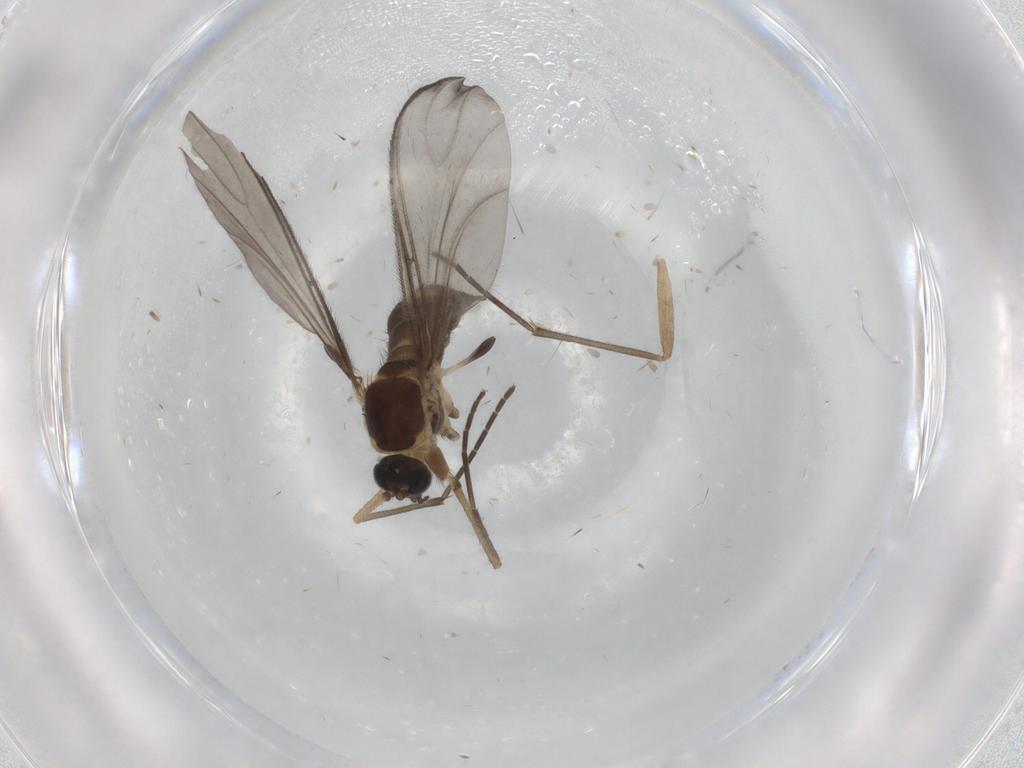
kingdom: Animalia
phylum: Arthropoda
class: Insecta
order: Diptera
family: Sciaridae
